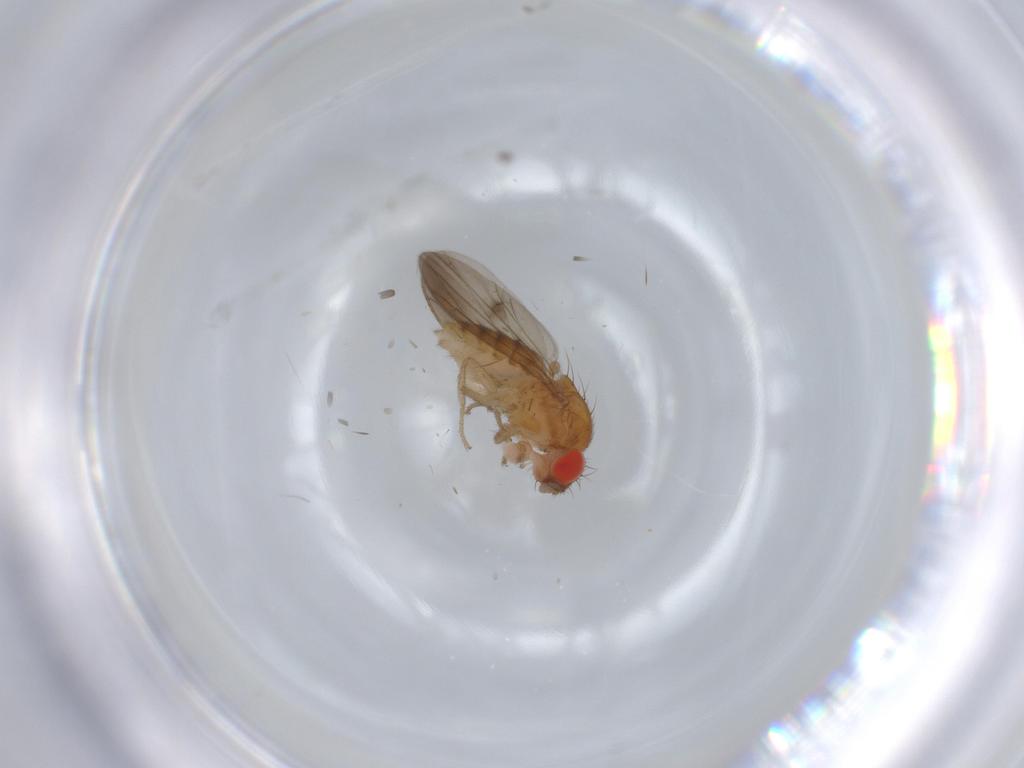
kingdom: Animalia
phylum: Arthropoda
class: Insecta
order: Diptera
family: Drosophilidae
